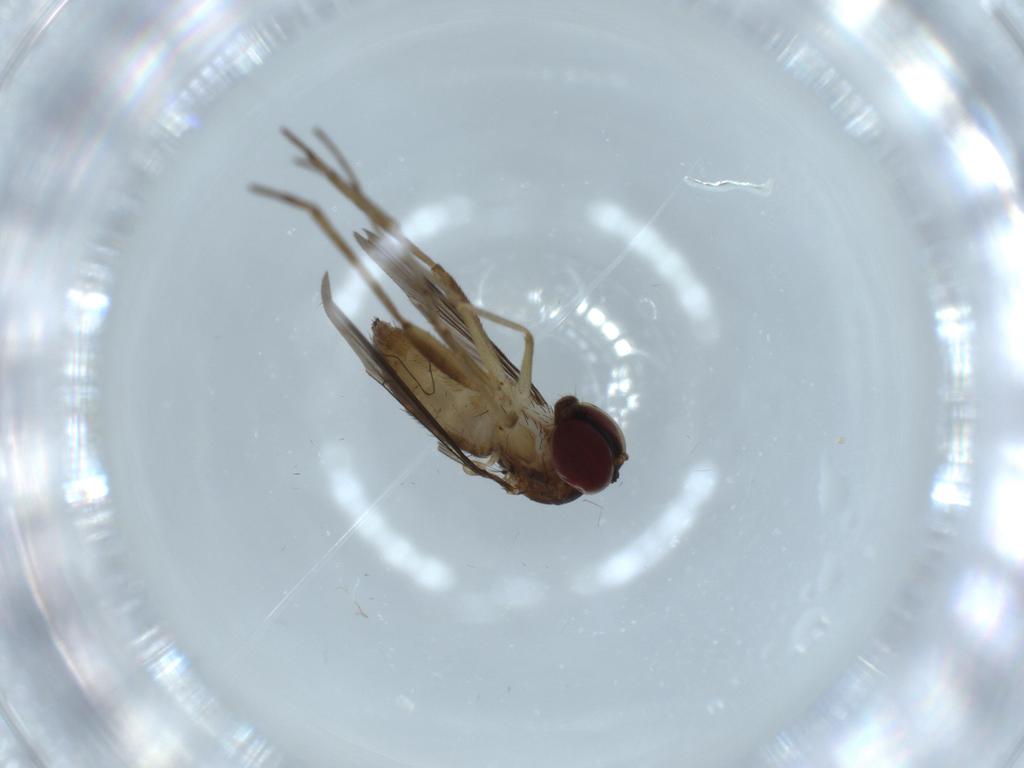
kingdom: Animalia
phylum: Arthropoda
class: Insecta
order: Diptera
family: Dolichopodidae
